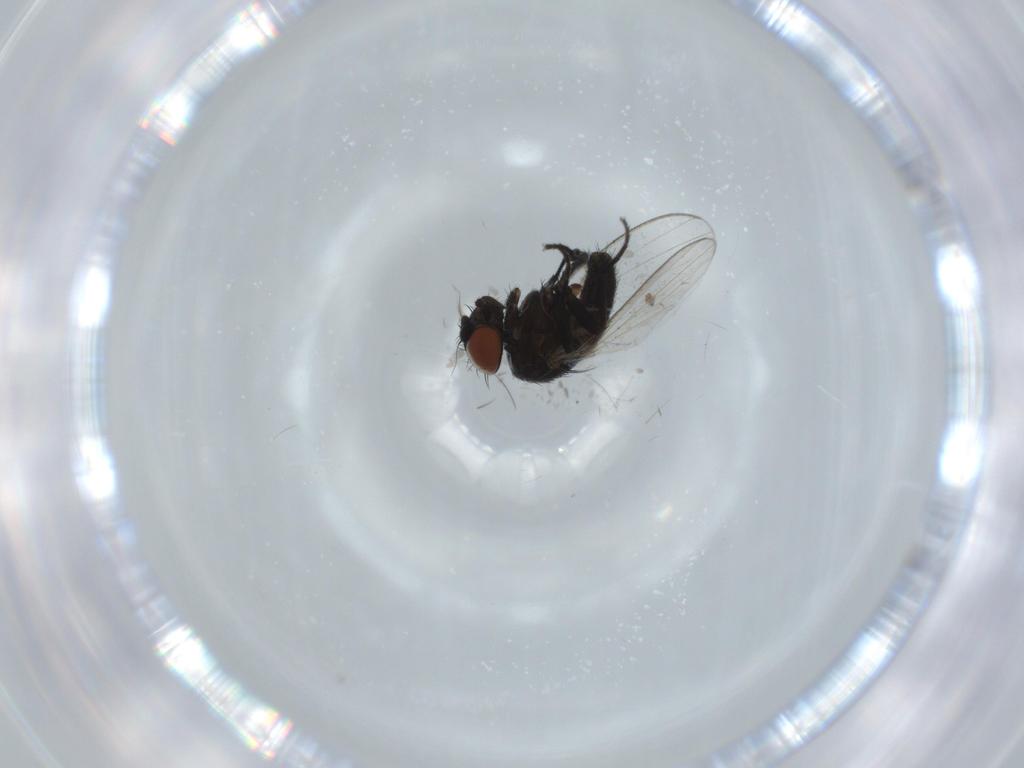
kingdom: Animalia
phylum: Arthropoda
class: Insecta
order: Diptera
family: Milichiidae
